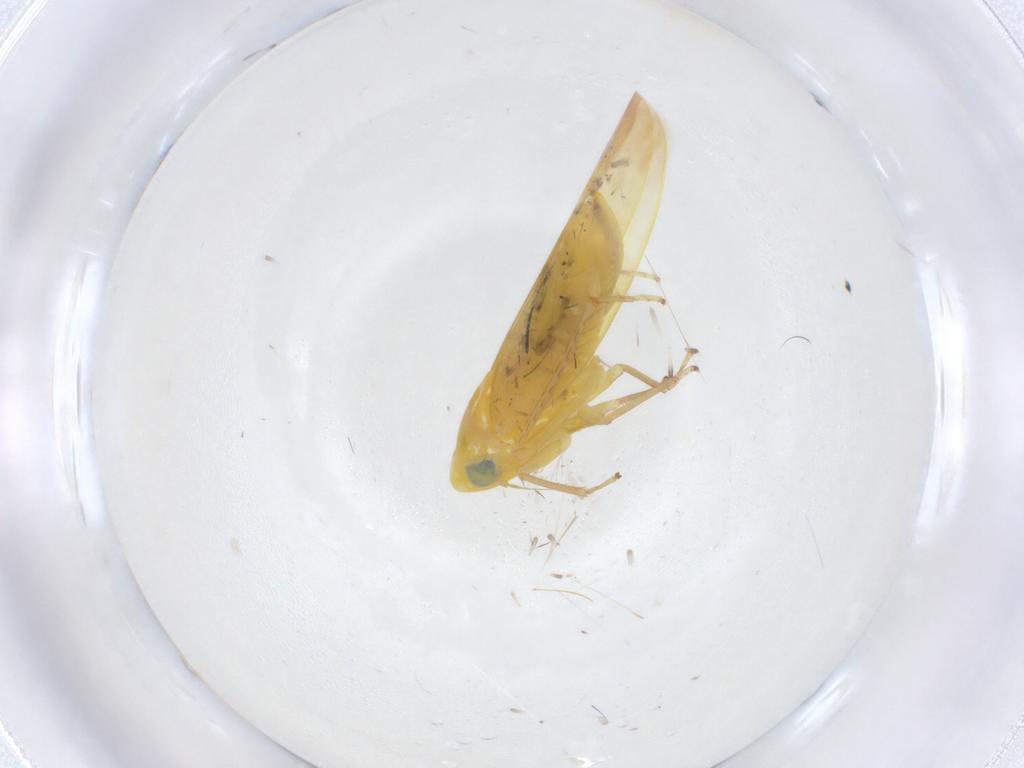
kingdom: Animalia
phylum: Arthropoda
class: Insecta
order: Hemiptera
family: Cicadellidae
